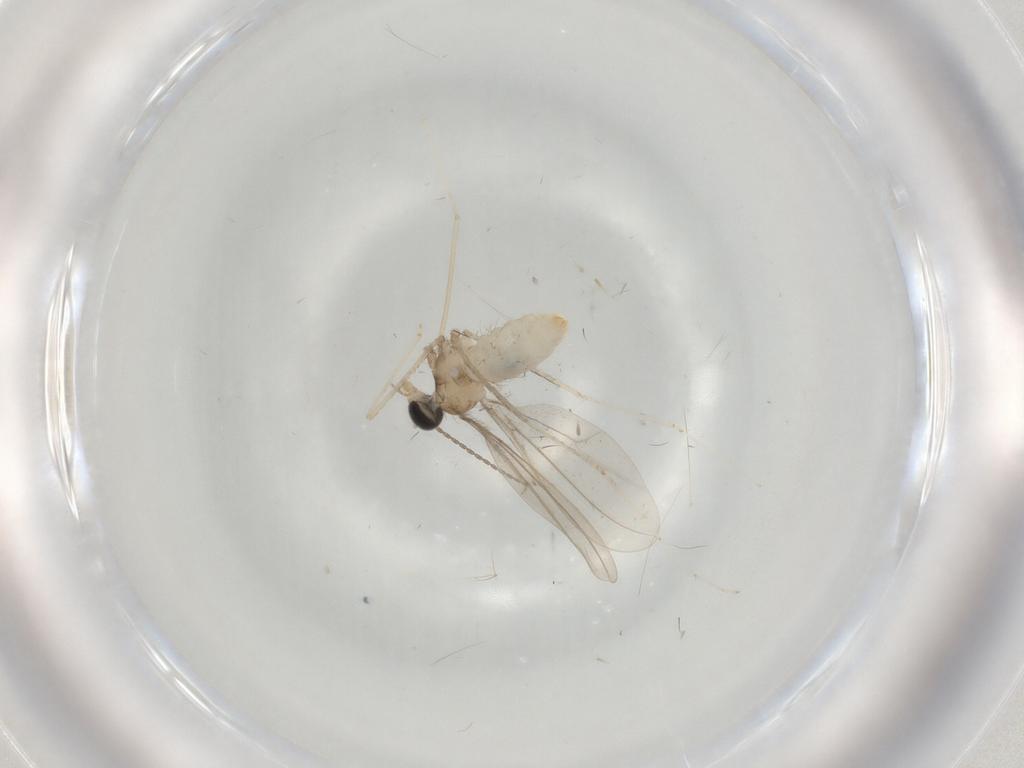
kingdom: Animalia
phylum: Arthropoda
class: Insecta
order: Diptera
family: Cecidomyiidae
